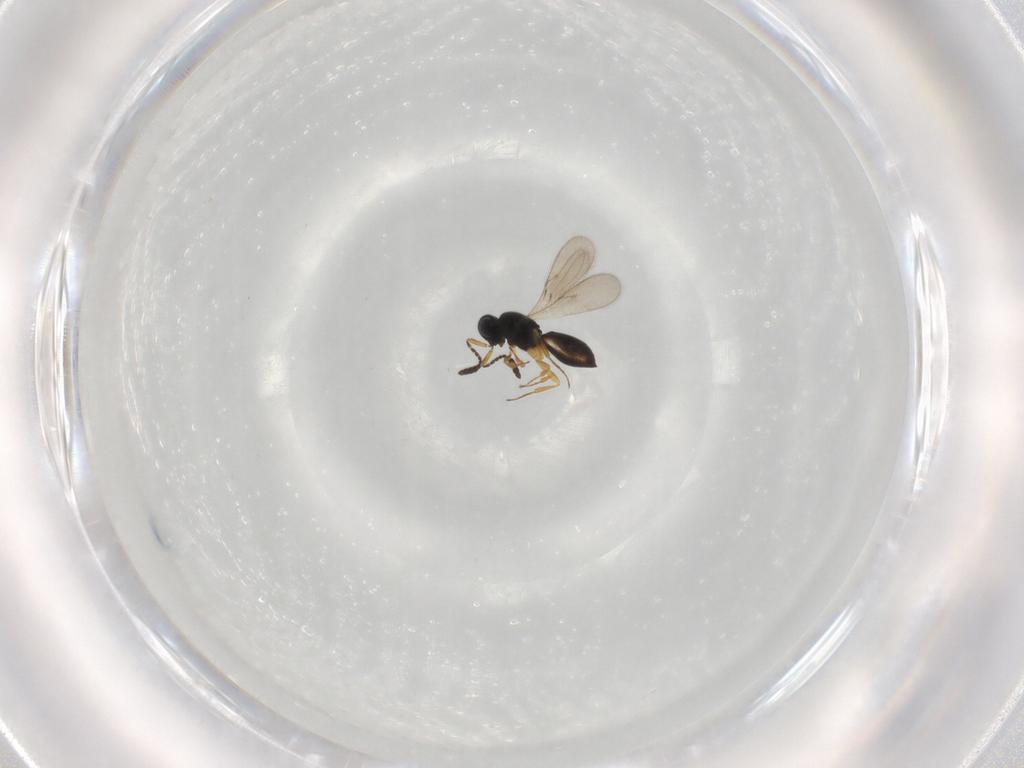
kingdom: Animalia
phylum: Arthropoda
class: Insecta
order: Hymenoptera
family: Scelionidae
